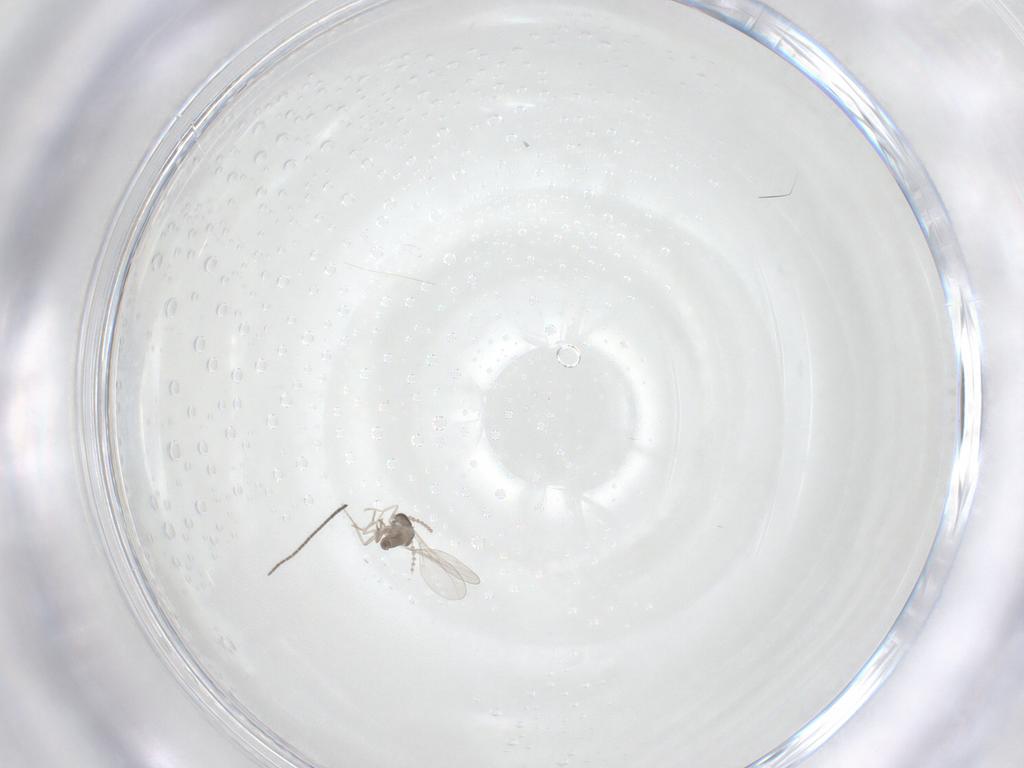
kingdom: Animalia
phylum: Arthropoda
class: Insecta
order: Diptera
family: Cecidomyiidae
